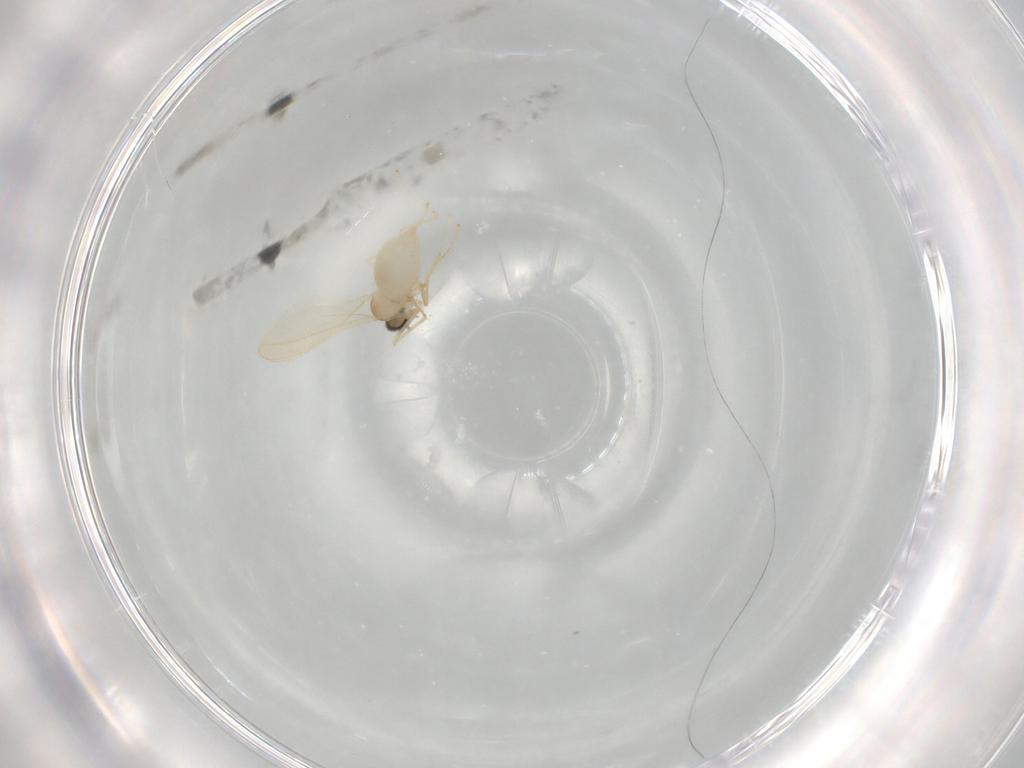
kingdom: Animalia
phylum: Arthropoda
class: Insecta
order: Diptera
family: Cecidomyiidae
